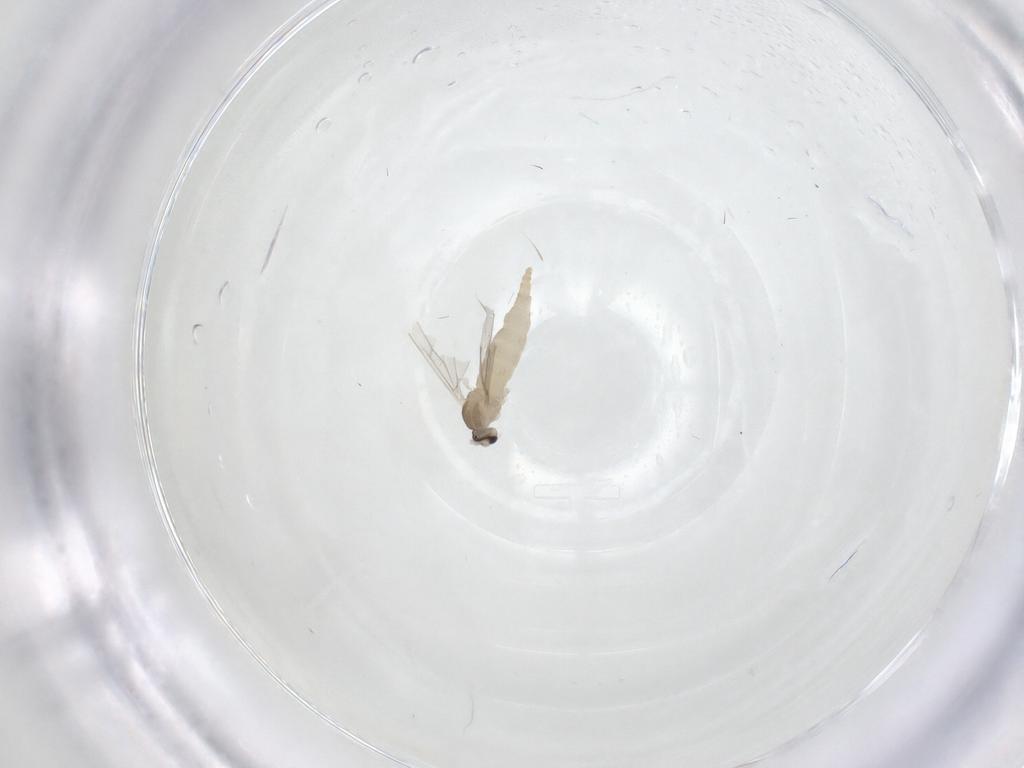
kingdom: Animalia
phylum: Arthropoda
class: Insecta
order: Diptera
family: Cecidomyiidae
